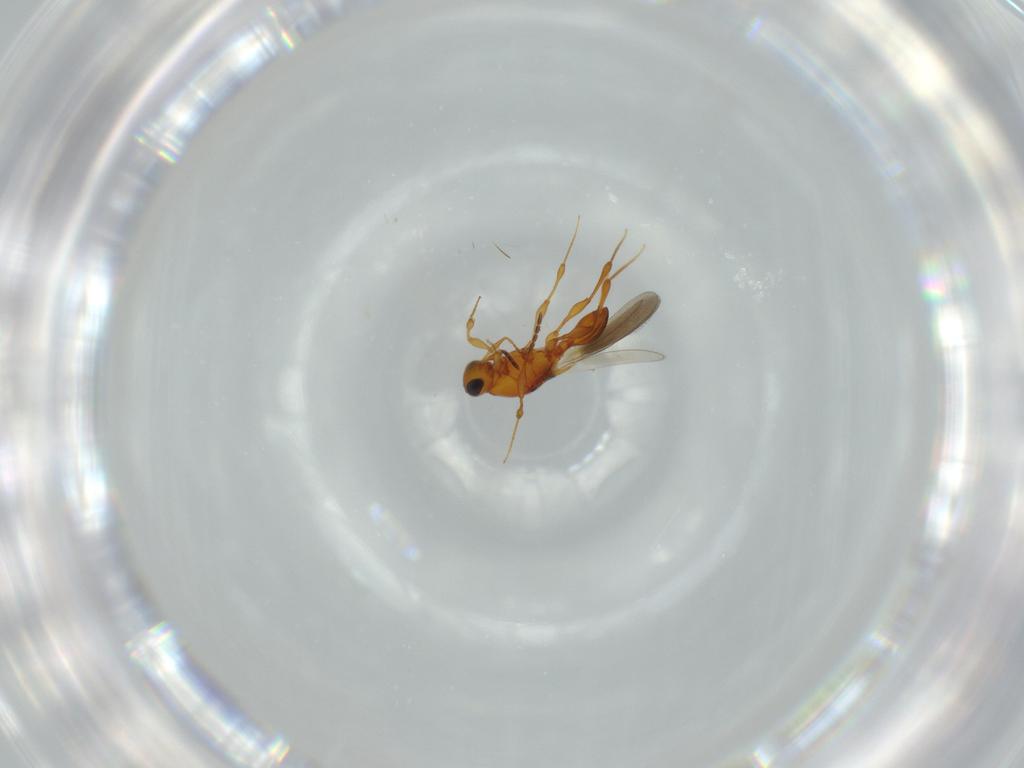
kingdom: Animalia
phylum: Arthropoda
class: Insecta
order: Hymenoptera
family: Platygastridae
